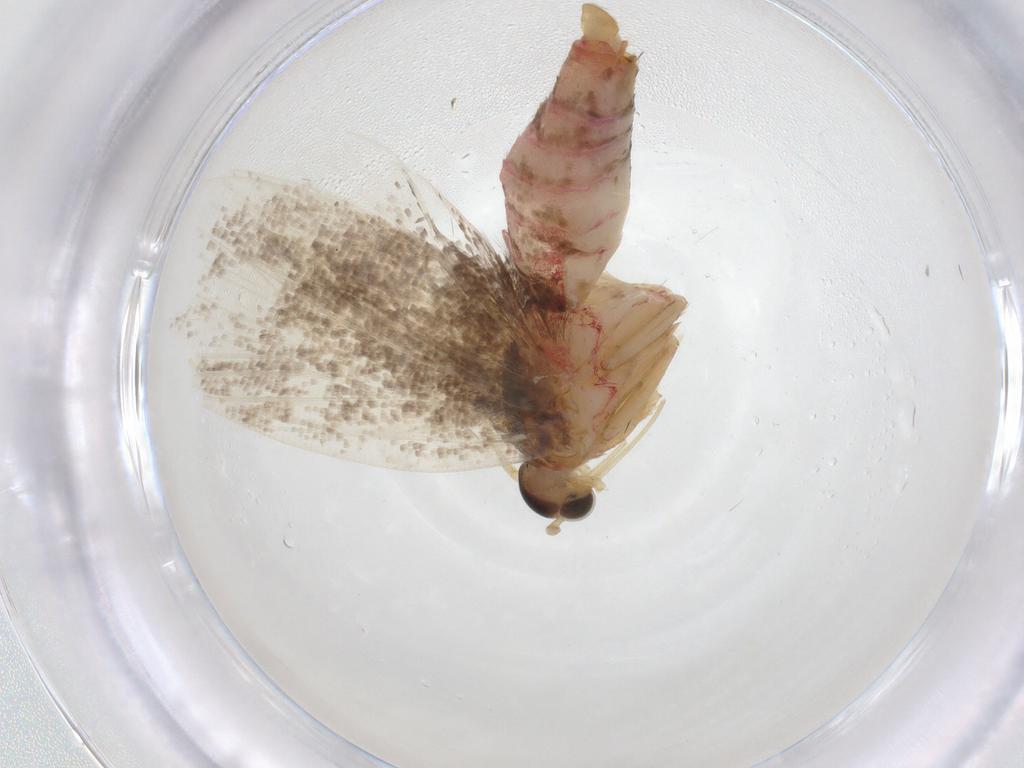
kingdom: Animalia
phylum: Arthropoda
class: Insecta
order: Lepidoptera
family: Gelechiidae
